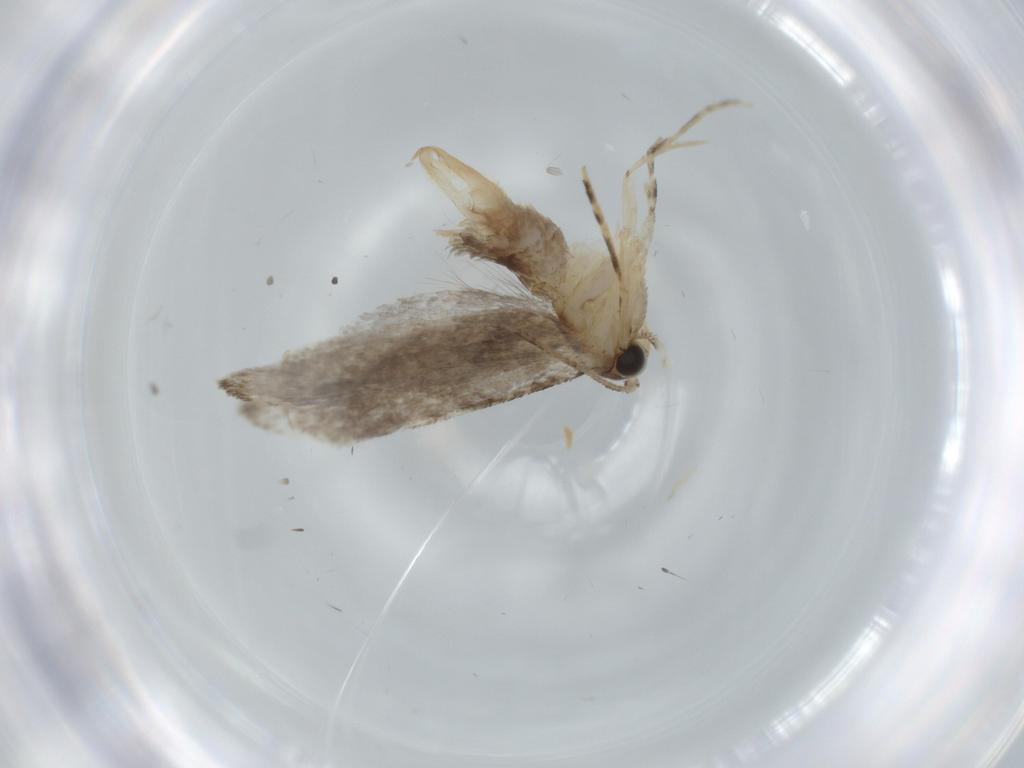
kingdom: Animalia
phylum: Arthropoda
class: Insecta
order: Lepidoptera
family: Tineidae
